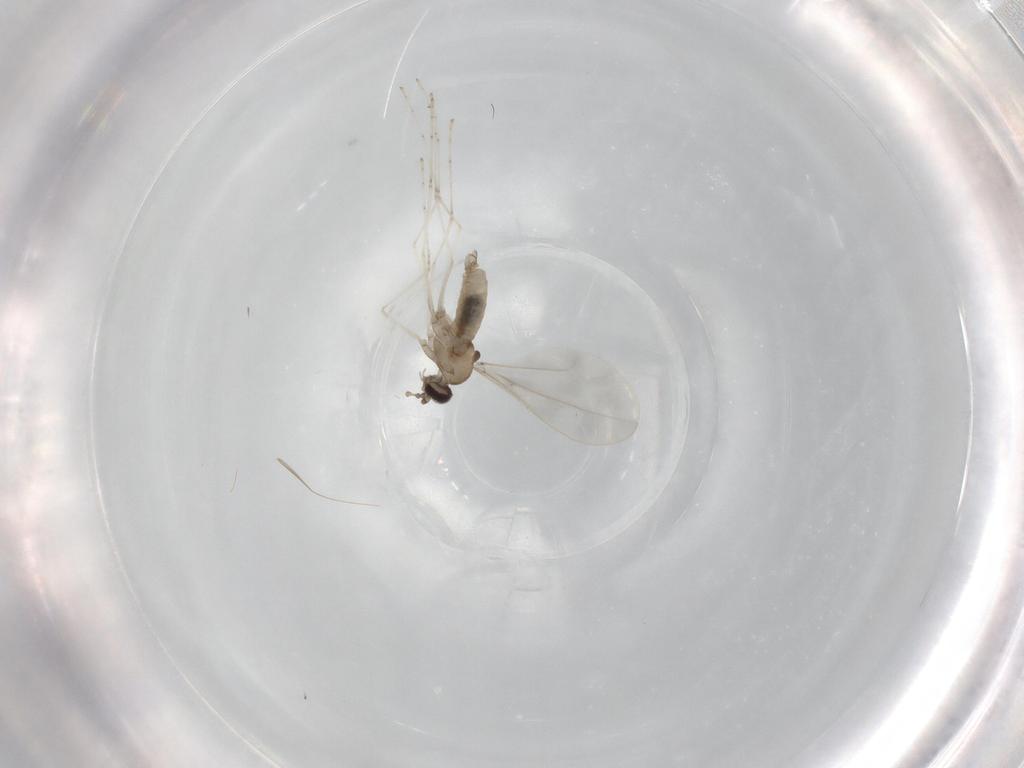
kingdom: Animalia
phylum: Arthropoda
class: Insecta
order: Diptera
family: Cecidomyiidae
